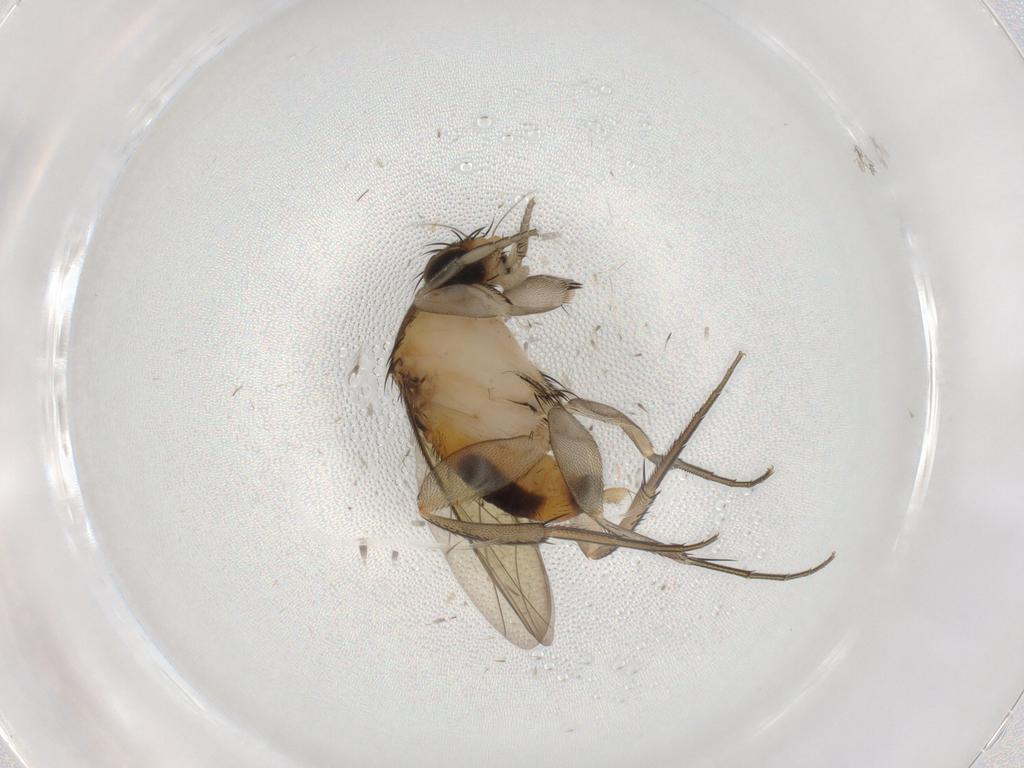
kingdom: Animalia
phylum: Arthropoda
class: Insecta
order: Diptera
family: Phoridae
